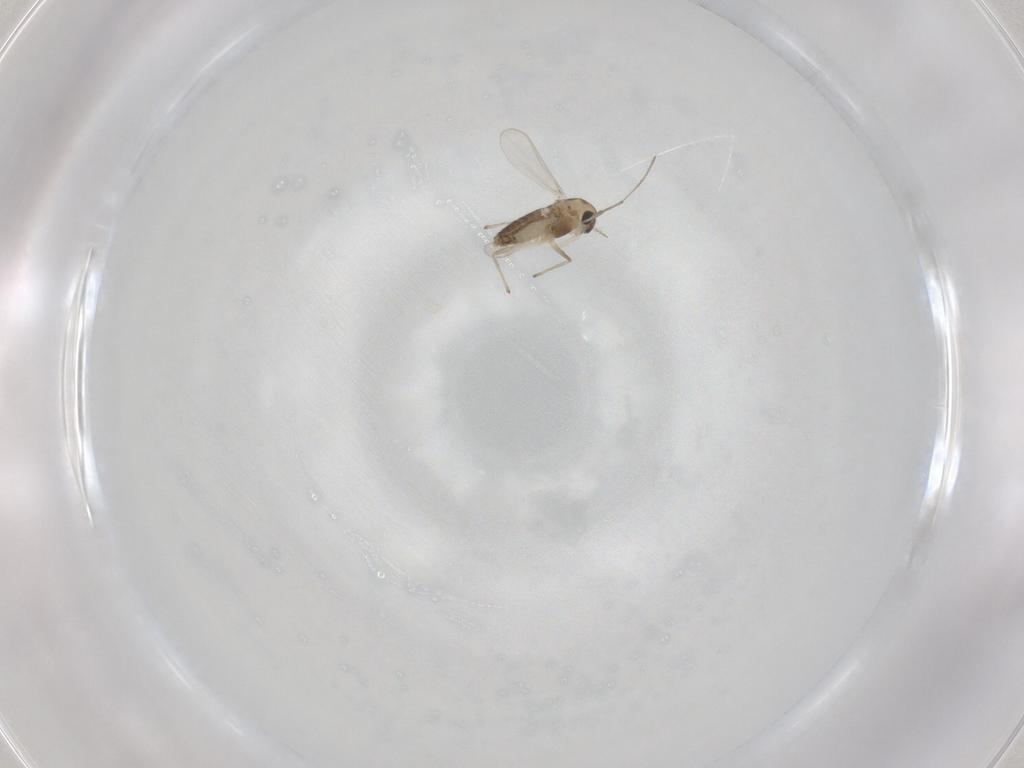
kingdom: Animalia
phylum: Arthropoda
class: Insecta
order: Diptera
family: Chironomidae
